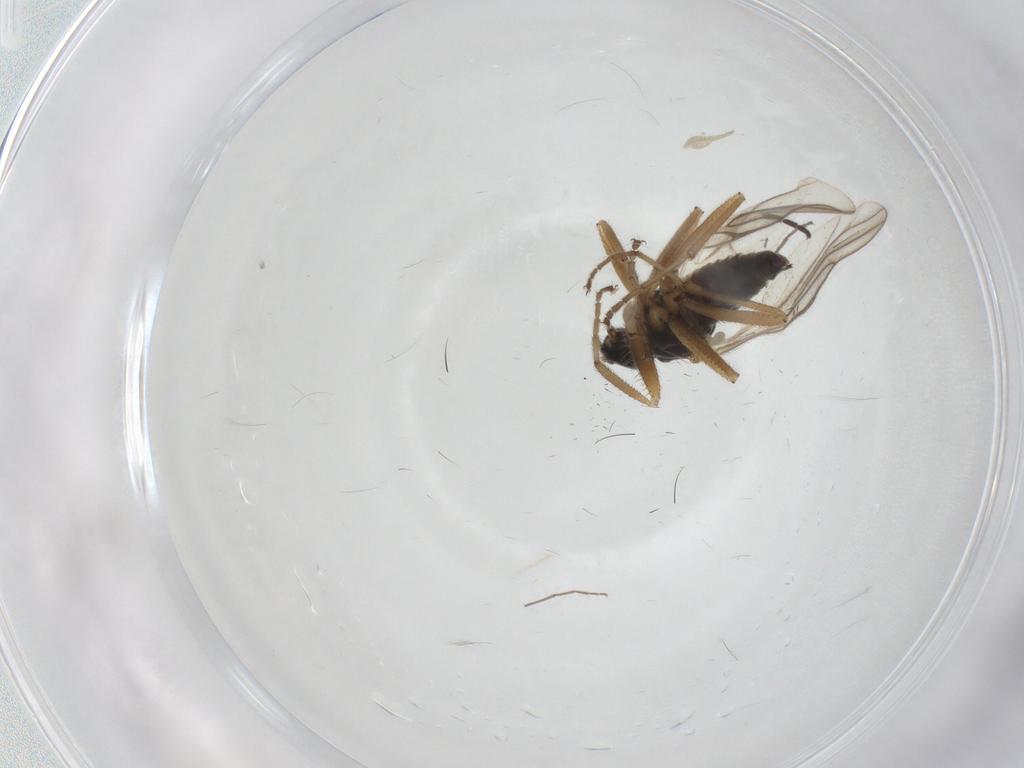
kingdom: Animalia
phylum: Arthropoda
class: Insecta
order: Diptera
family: Hybotidae
